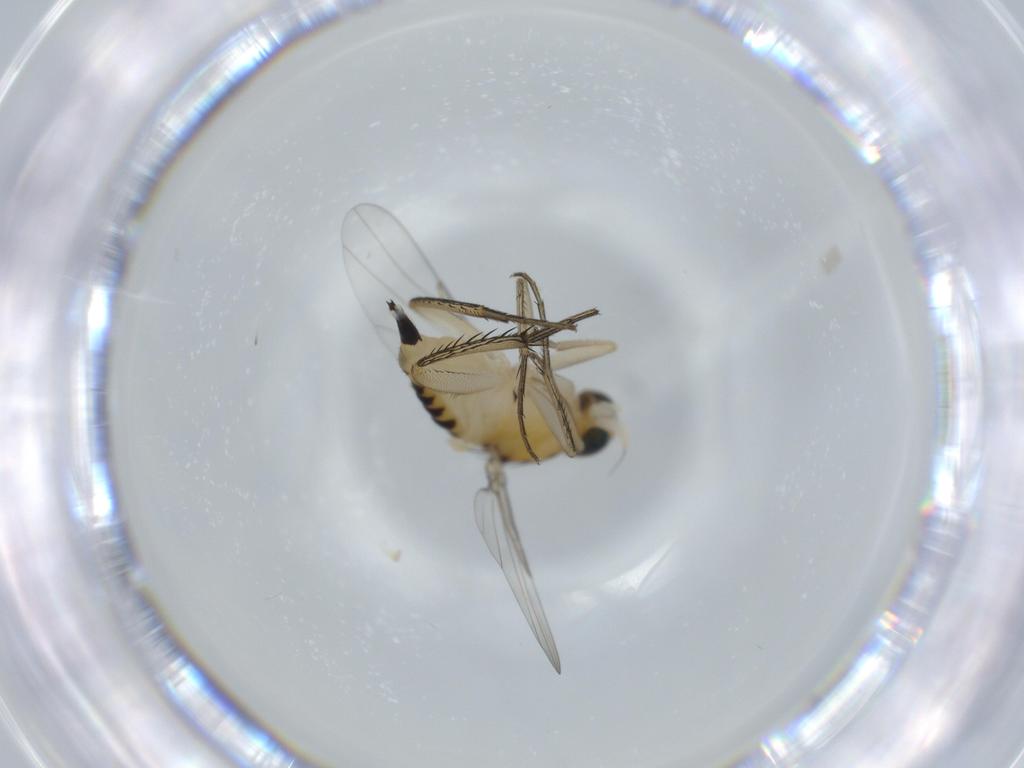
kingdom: Animalia
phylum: Arthropoda
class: Insecta
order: Diptera
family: Phoridae
